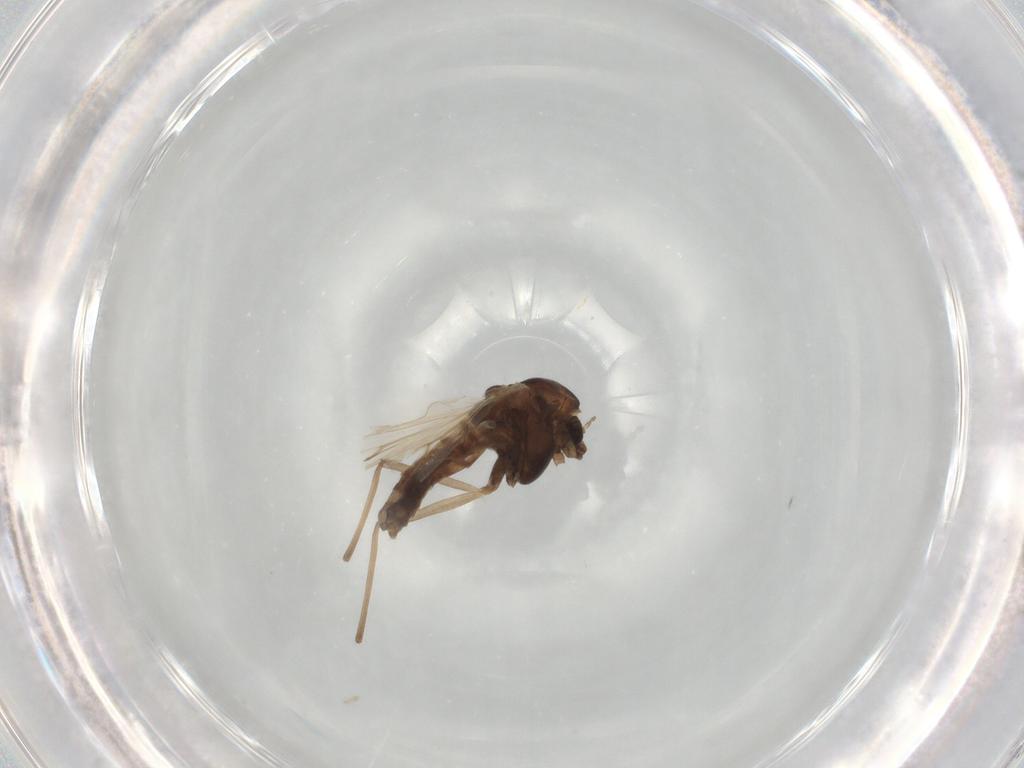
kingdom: Animalia
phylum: Arthropoda
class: Insecta
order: Diptera
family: Chironomidae
